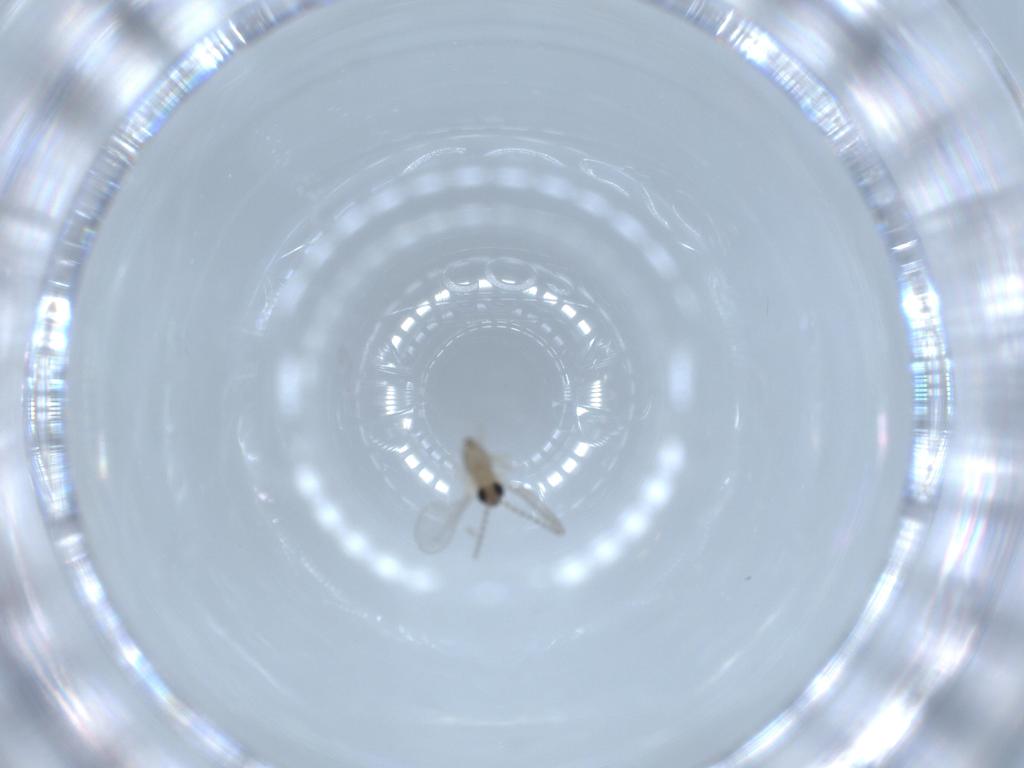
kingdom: Animalia
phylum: Arthropoda
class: Insecta
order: Diptera
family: Cecidomyiidae
